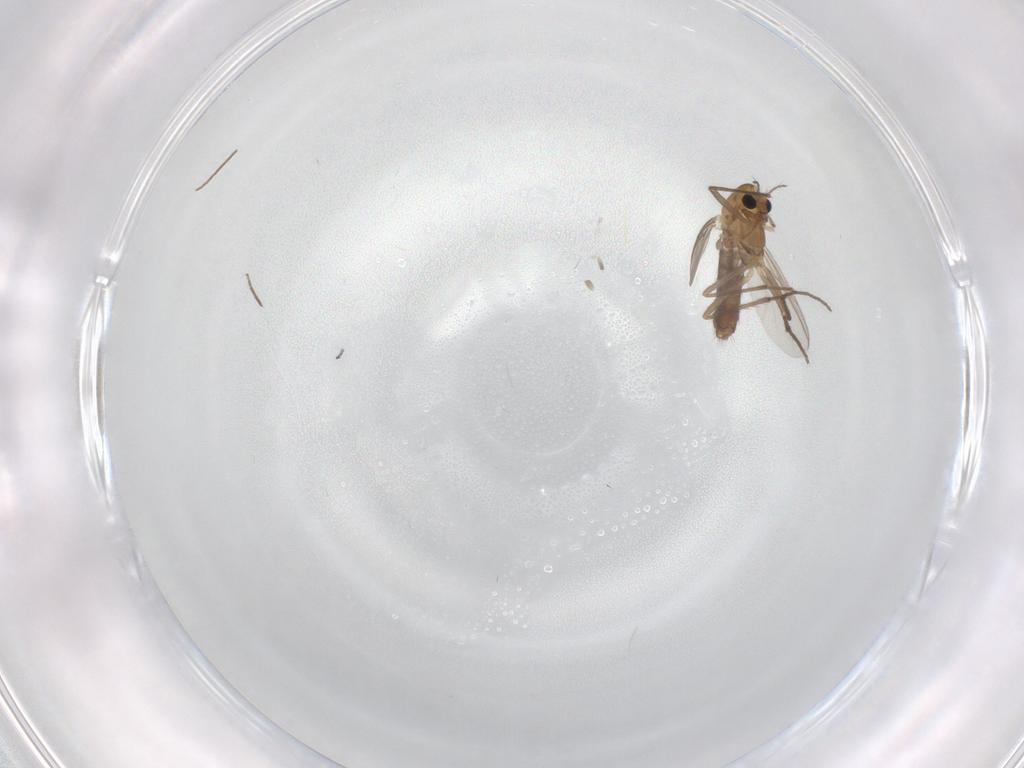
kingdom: Animalia
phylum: Arthropoda
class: Insecta
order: Diptera
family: Chironomidae
